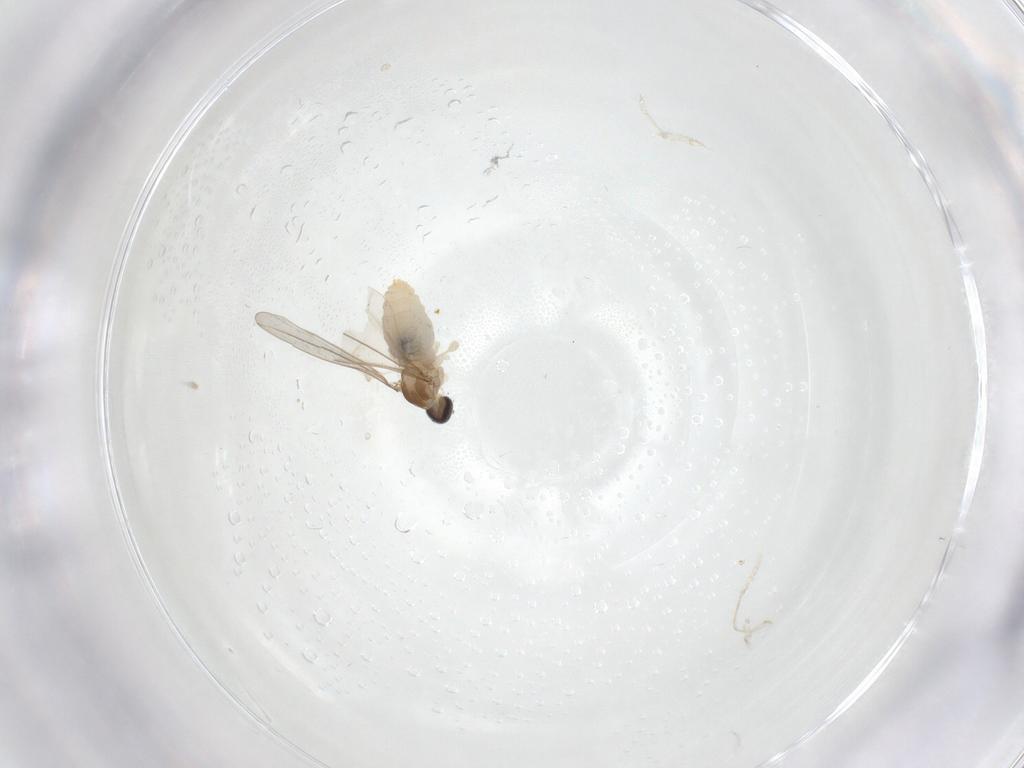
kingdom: Animalia
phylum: Arthropoda
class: Insecta
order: Diptera
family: Cecidomyiidae
